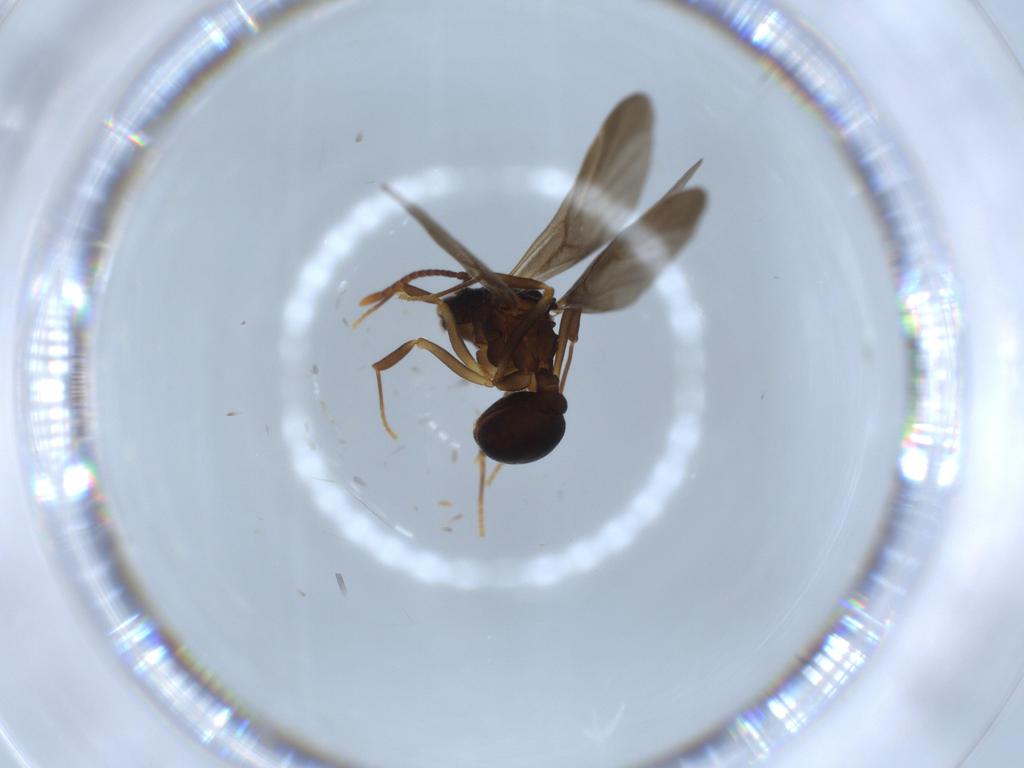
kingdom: Animalia
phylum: Arthropoda
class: Insecta
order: Hymenoptera
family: Formicidae
